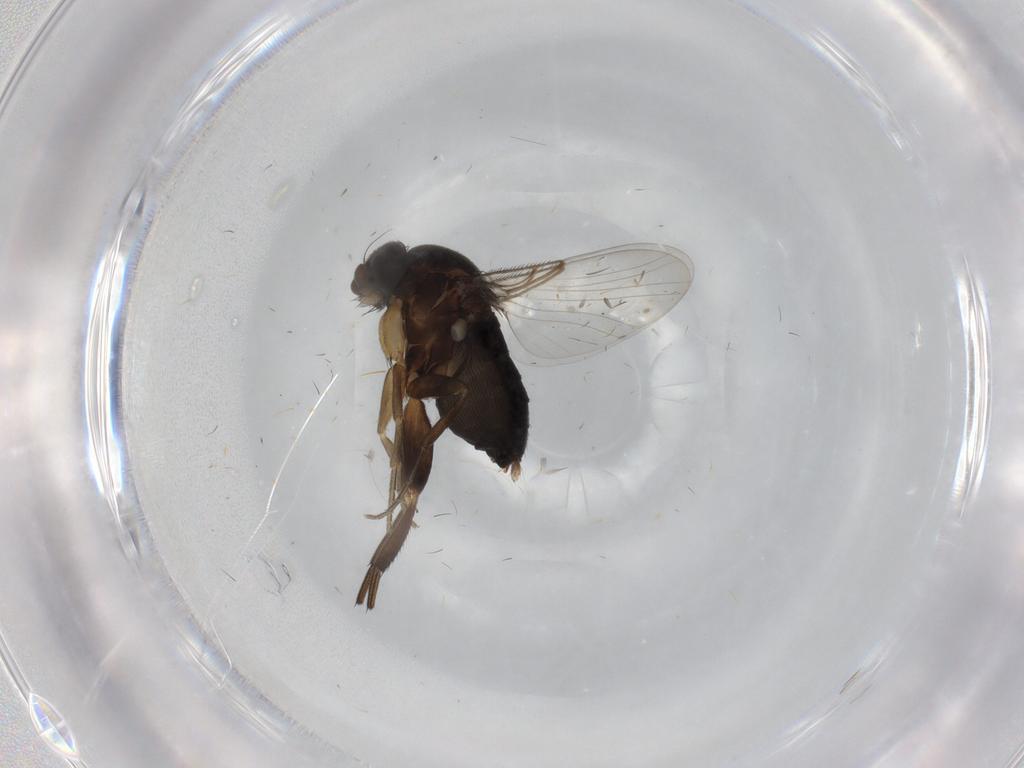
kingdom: Animalia
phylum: Arthropoda
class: Insecta
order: Diptera
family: Phoridae
